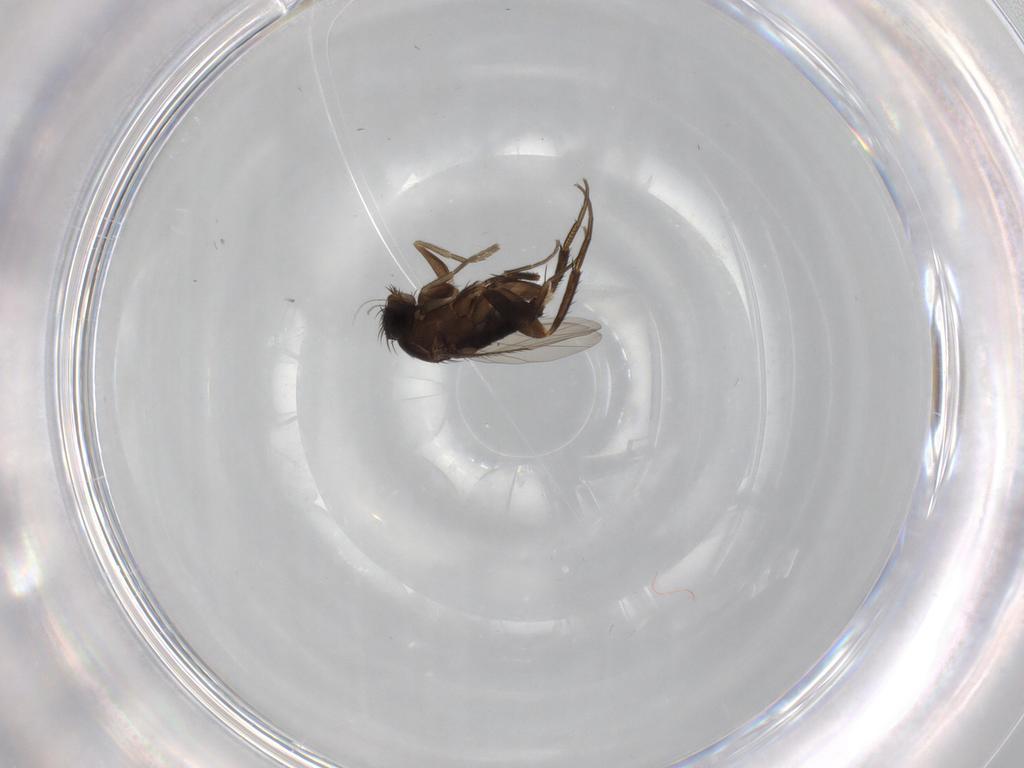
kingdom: Animalia
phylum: Arthropoda
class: Insecta
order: Diptera
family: Phoridae
